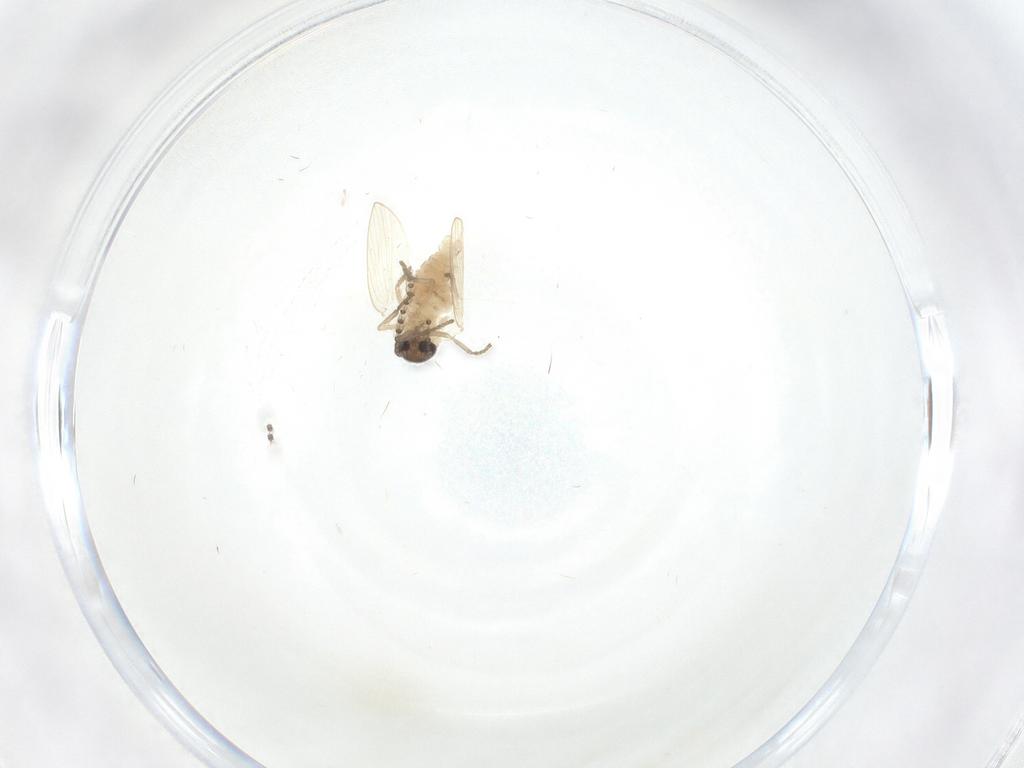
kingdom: Animalia
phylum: Arthropoda
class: Insecta
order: Diptera
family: Psychodidae
